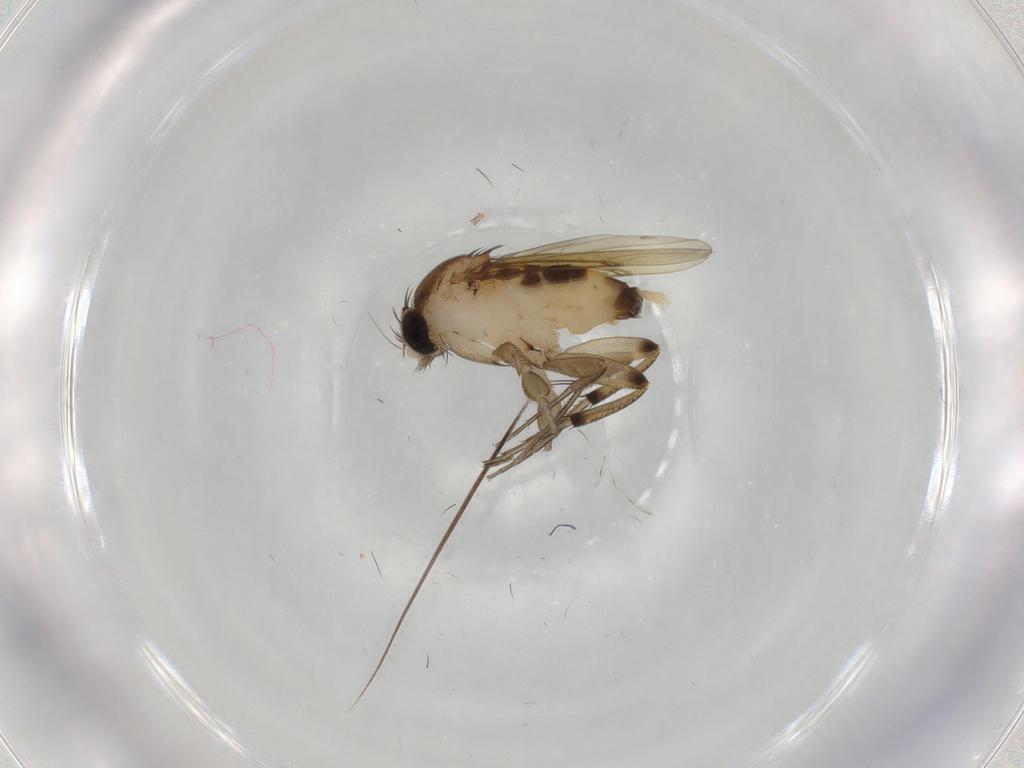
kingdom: Animalia
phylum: Arthropoda
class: Insecta
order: Diptera
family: Phoridae
